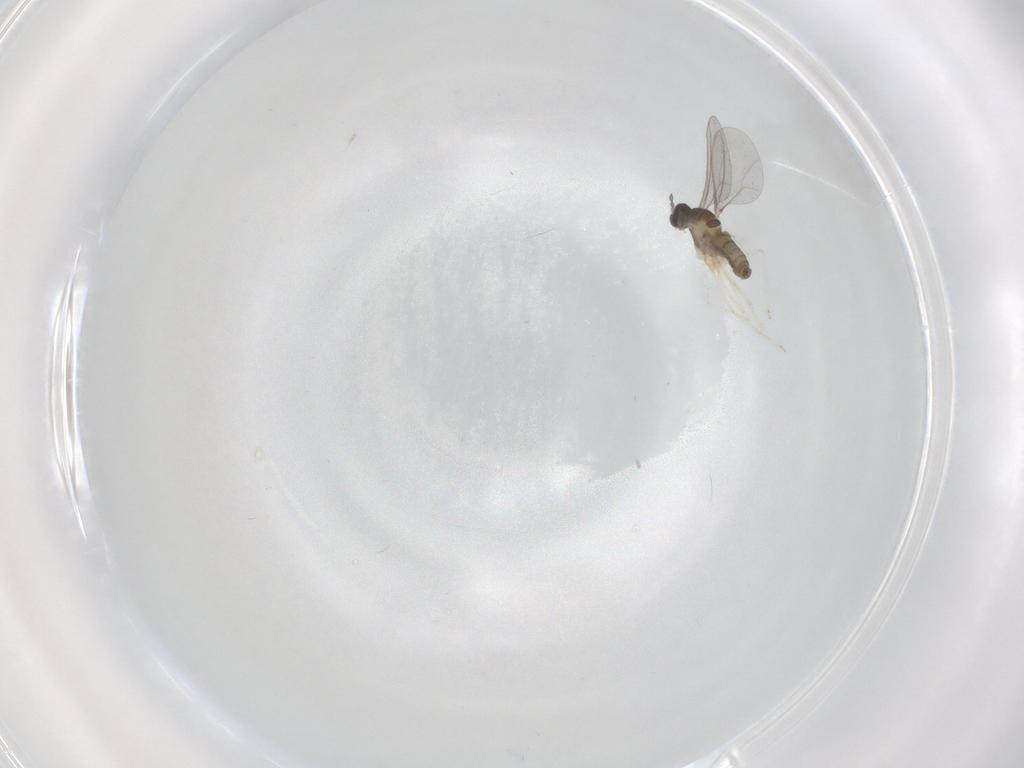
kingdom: Animalia
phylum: Arthropoda
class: Insecta
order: Diptera
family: Cecidomyiidae
